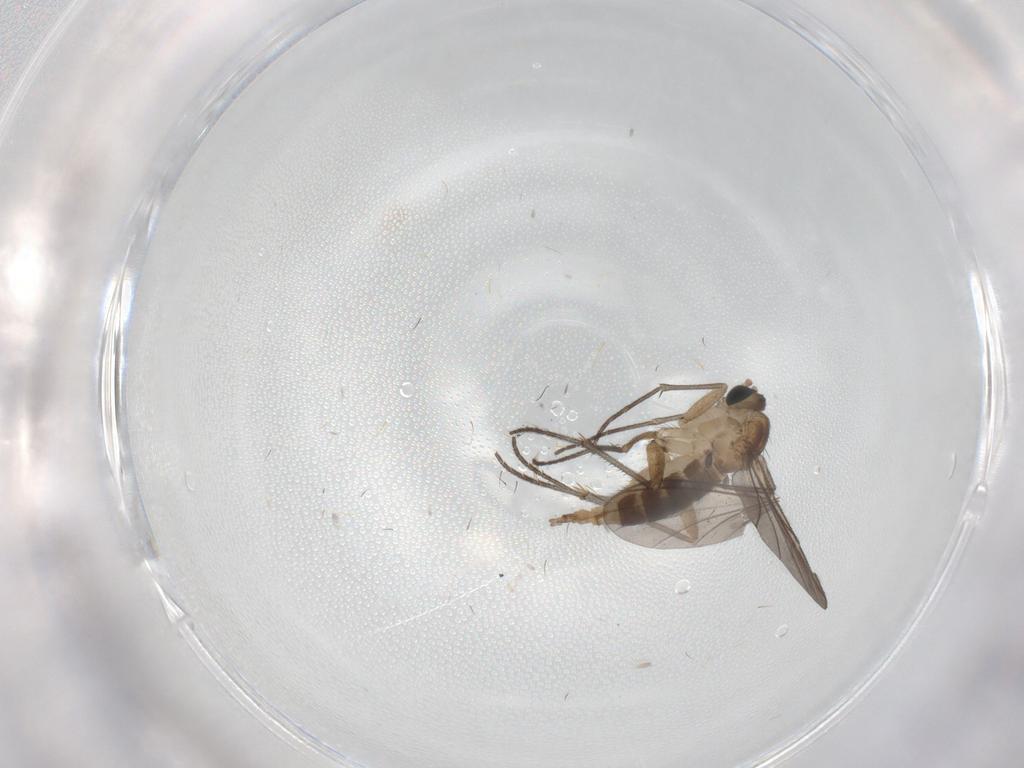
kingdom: Animalia
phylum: Arthropoda
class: Insecta
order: Diptera
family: Sciaridae
